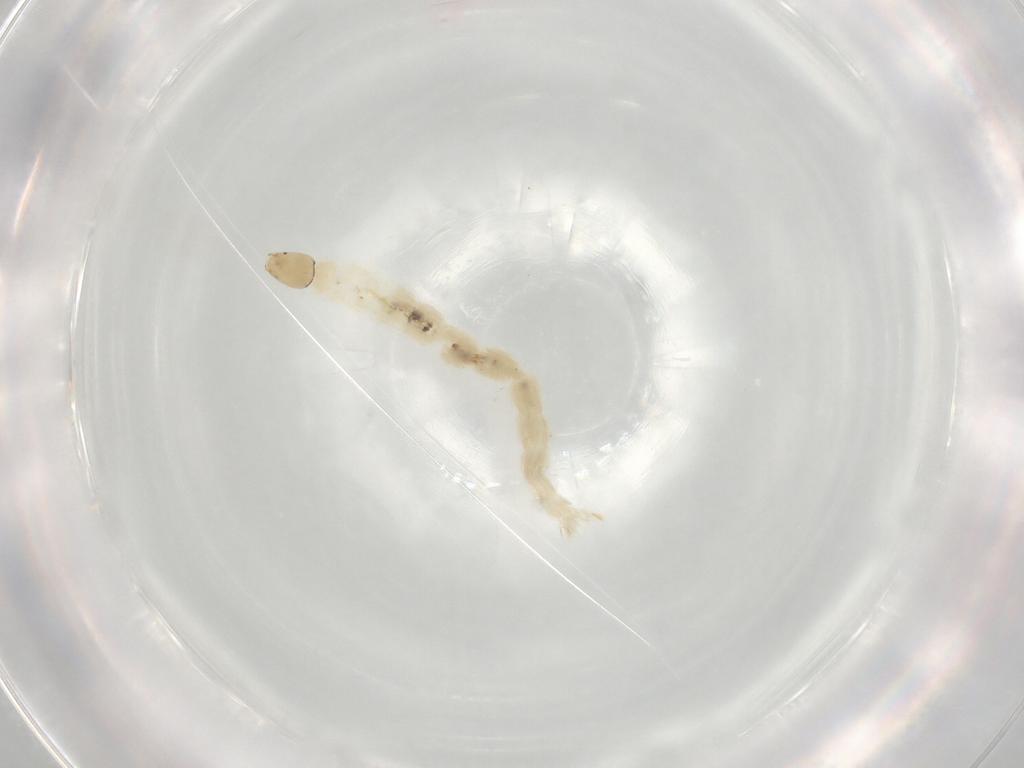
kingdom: Animalia
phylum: Arthropoda
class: Insecta
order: Diptera
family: Chironomidae
